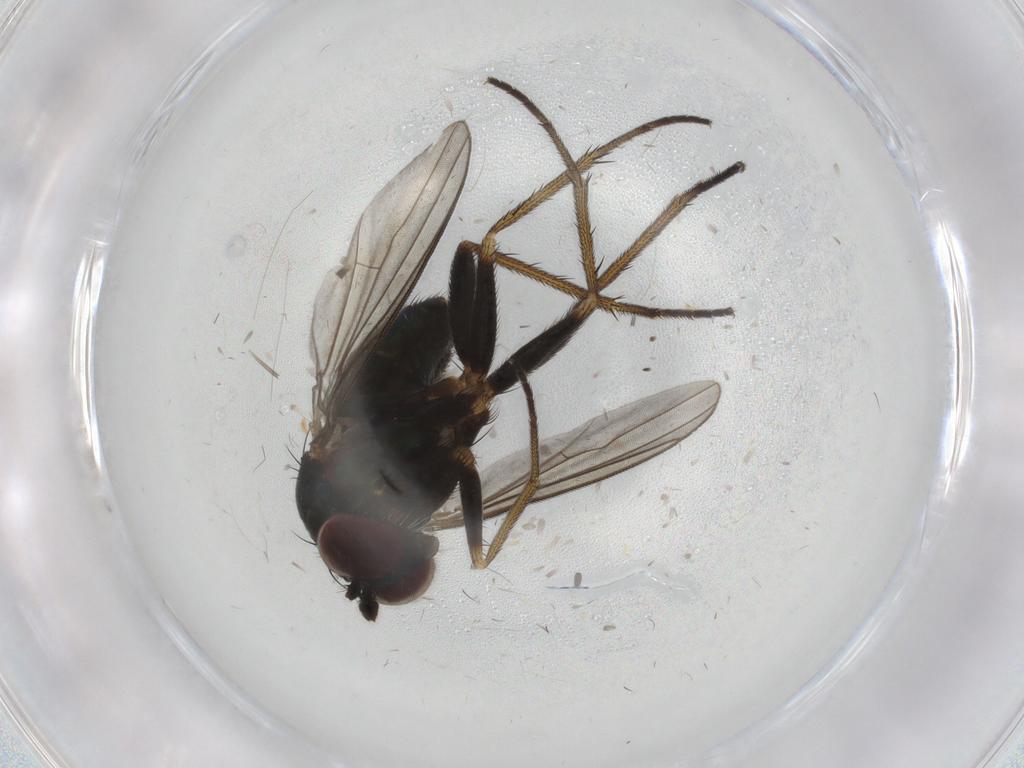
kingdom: Animalia
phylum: Arthropoda
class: Insecta
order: Diptera
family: Dolichopodidae
